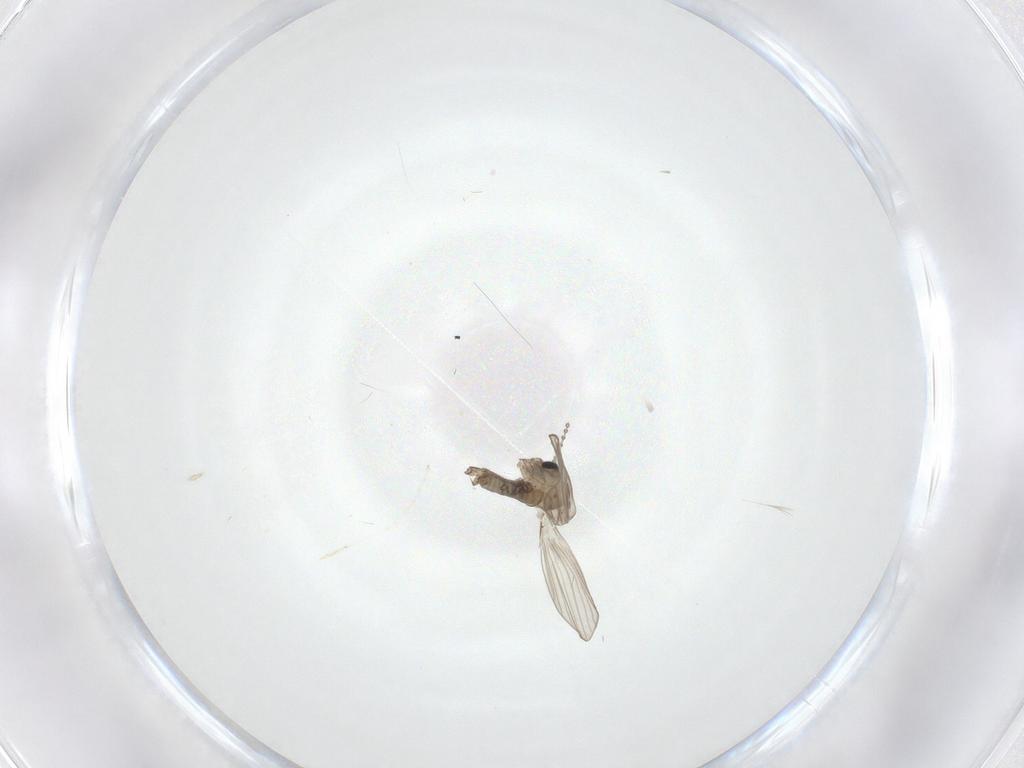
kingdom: Animalia
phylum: Arthropoda
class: Insecta
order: Diptera
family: Psychodidae
